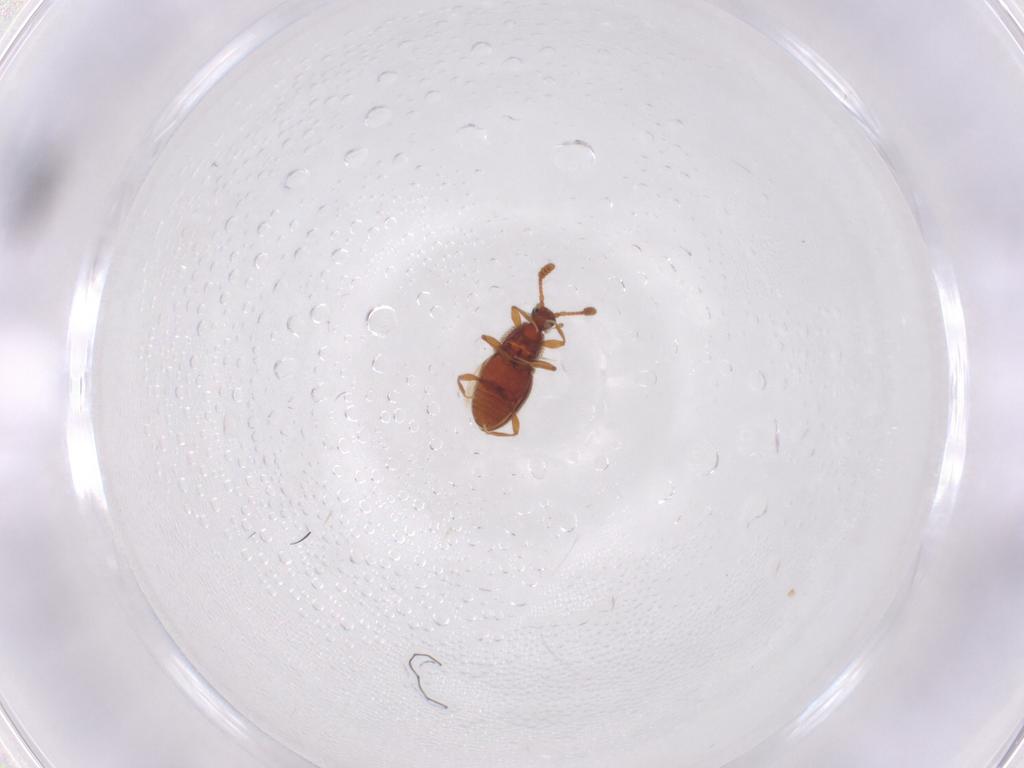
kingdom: Animalia
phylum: Arthropoda
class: Insecta
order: Coleoptera
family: Staphylinidae
